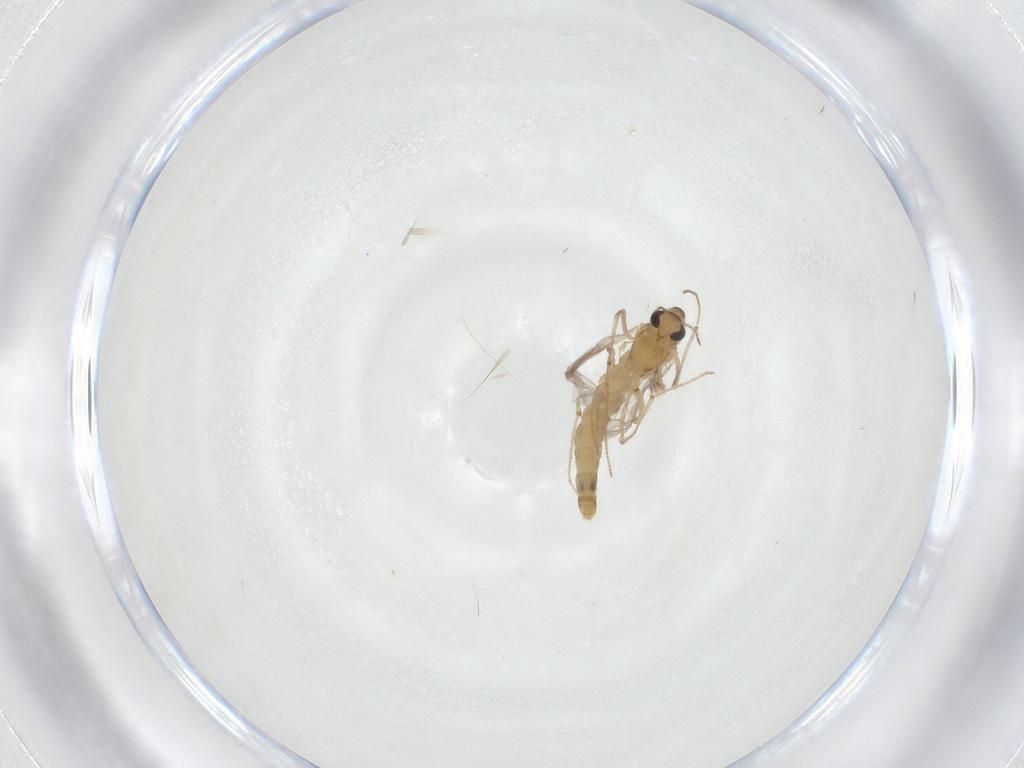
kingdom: Animalia
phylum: Arthropoda
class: Insecta
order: Diptera
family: Chironomidae
